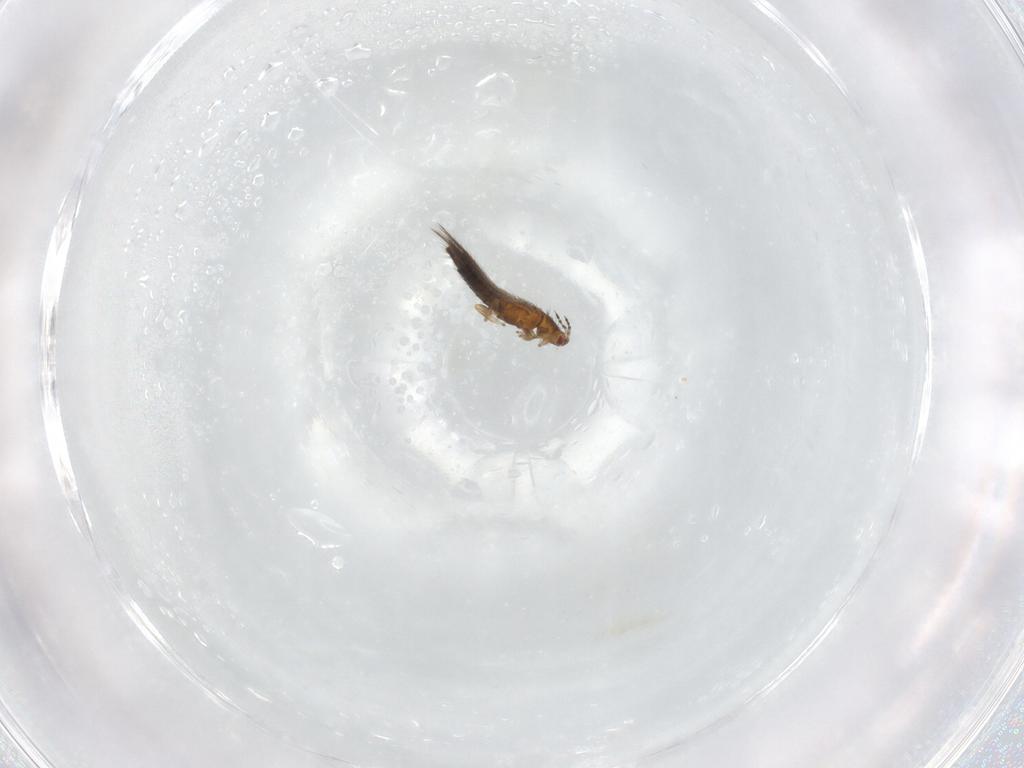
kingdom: Animalia
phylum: Arthropoda
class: Insecta
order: Thysanoptera
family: Thripidae
